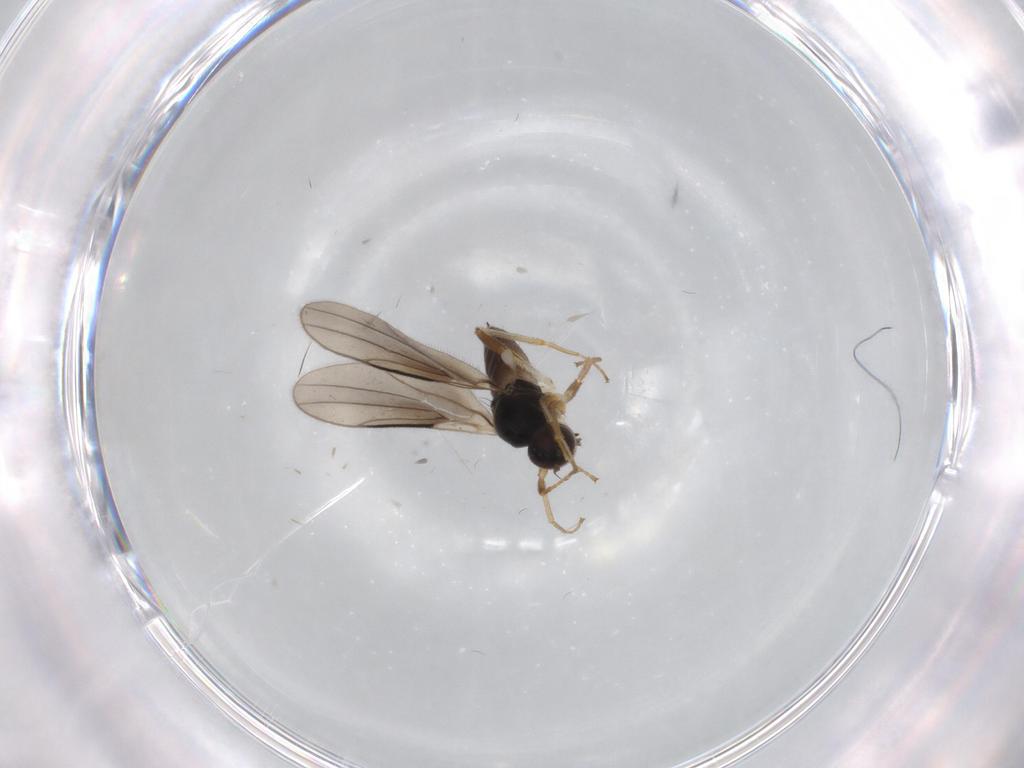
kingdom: Animalia
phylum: Arthropoda
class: Insecta
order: Diptera
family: Hybotidae
